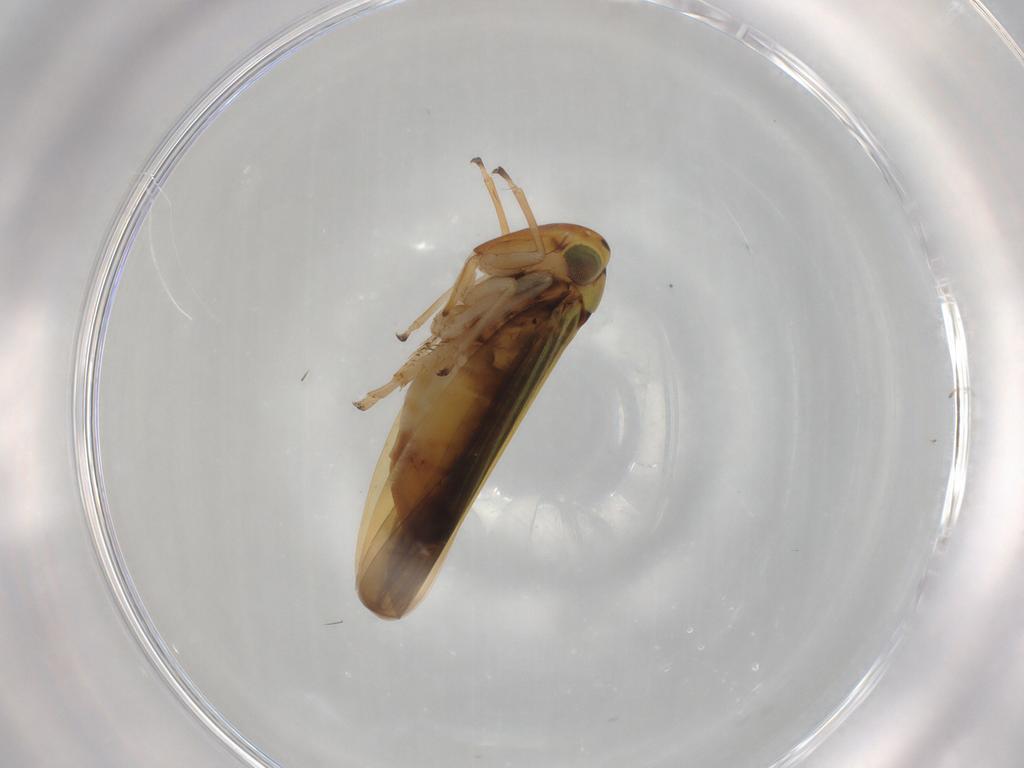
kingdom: Animalia
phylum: Arthropoda
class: Insecta
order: Hemiptera
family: Cicadellidae
